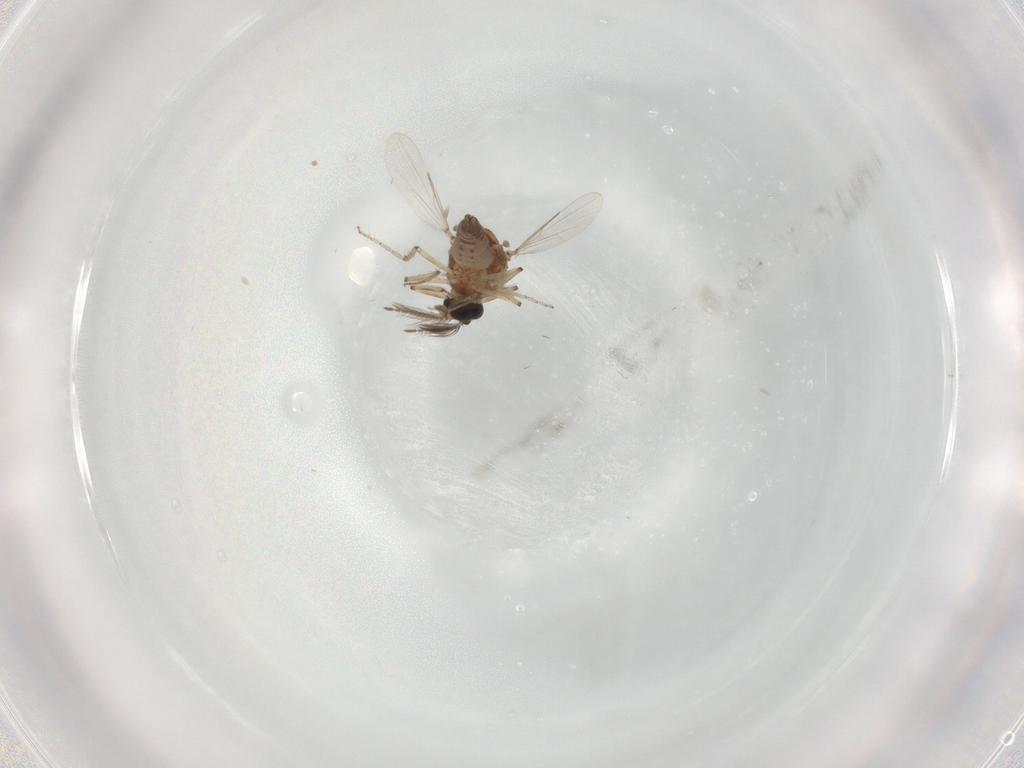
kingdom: Animalia
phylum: Arthropoda
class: Insecta
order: Diptera
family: Ceratopogonidae
